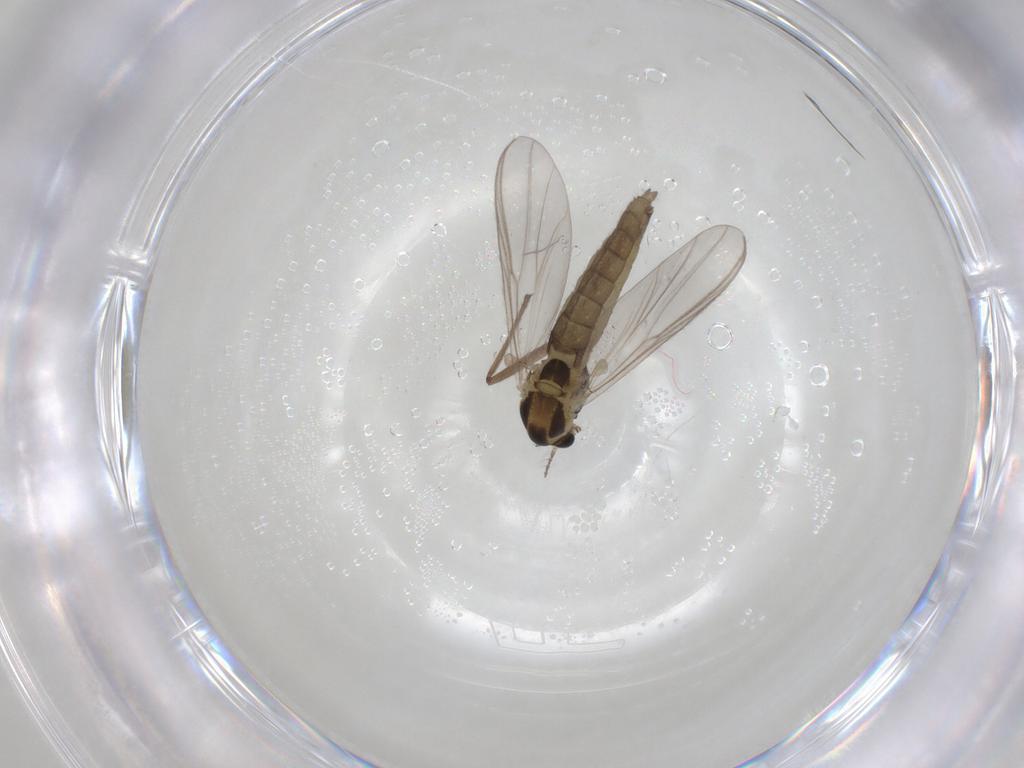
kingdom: Animalia
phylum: Arthropoda
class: Insecta
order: Diptera
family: Chironomidae
